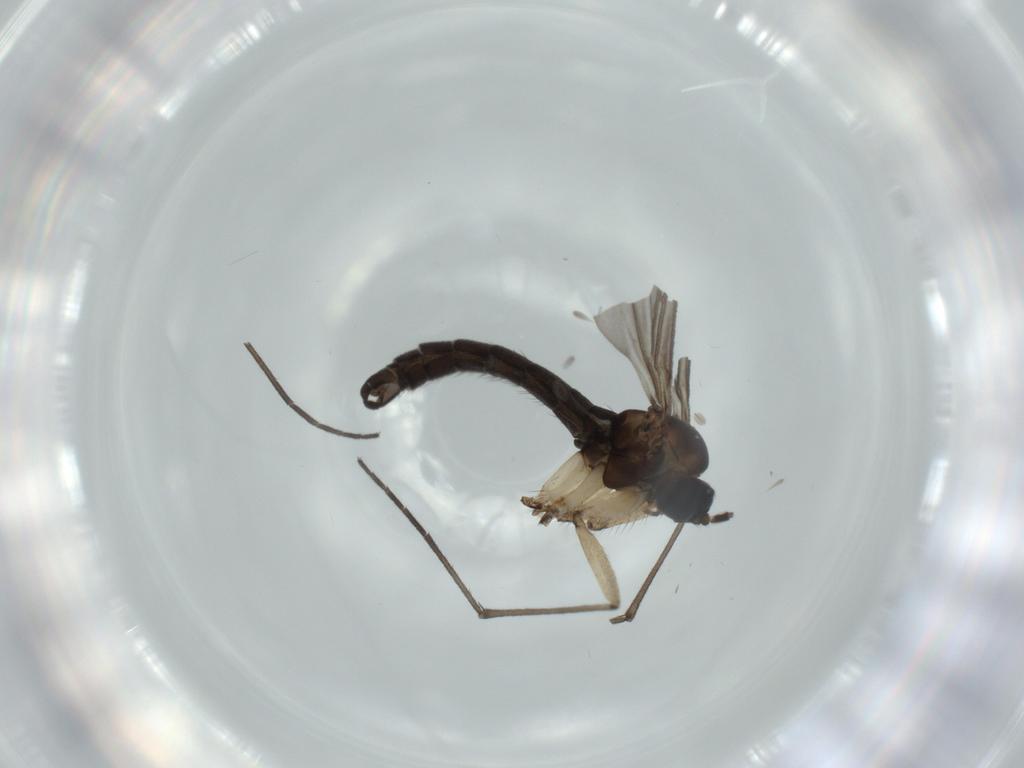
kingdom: Animalia
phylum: Arthropoda
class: Insecta
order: Diptera
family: Sciaridae
